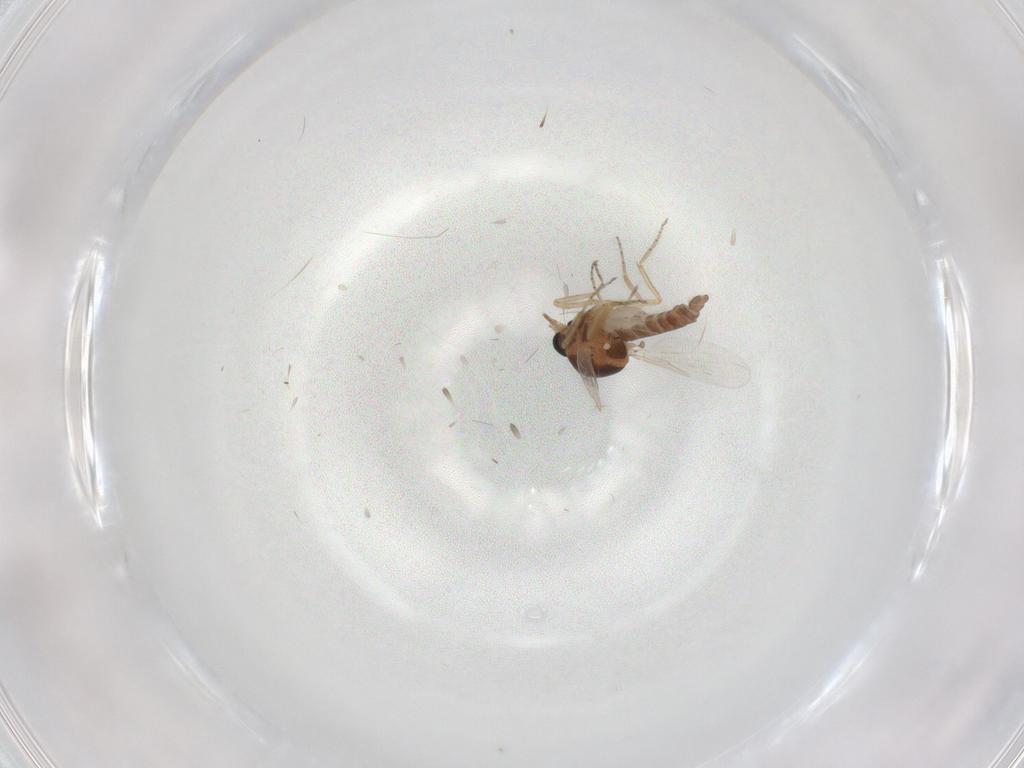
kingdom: Animalia
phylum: Arthropoda
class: Insecta
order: Diptera
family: Ceratopogonidae
